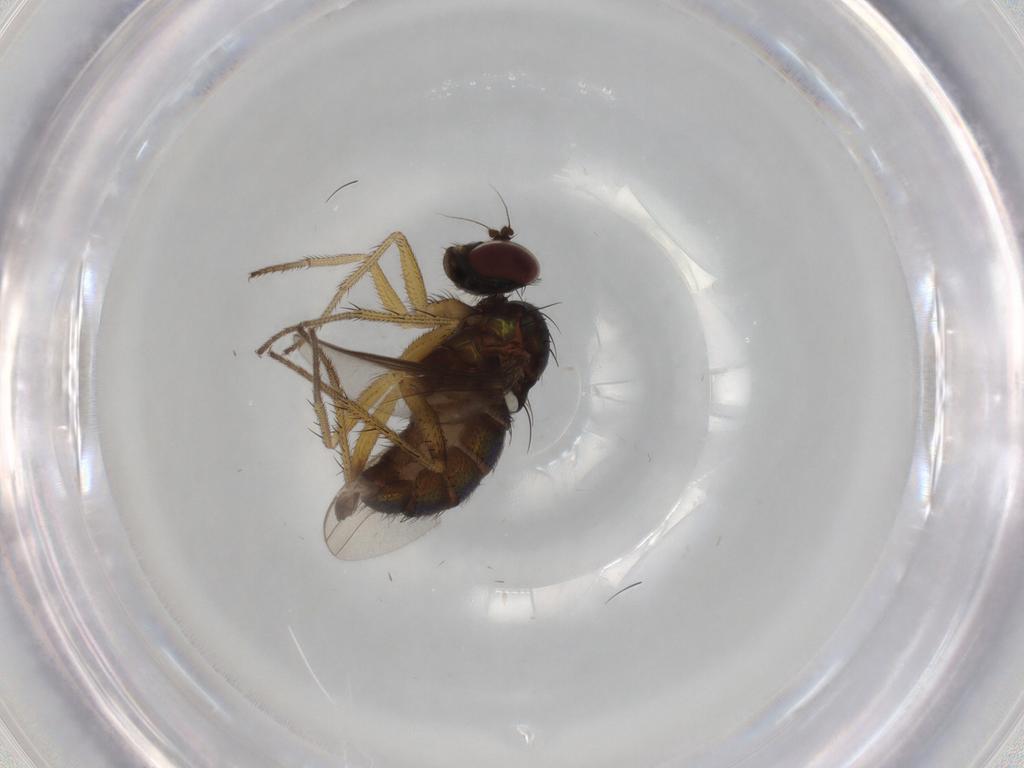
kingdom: Animalia
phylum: Arthropoda
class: Insecta
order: Diptera
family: Dolichopodidae
